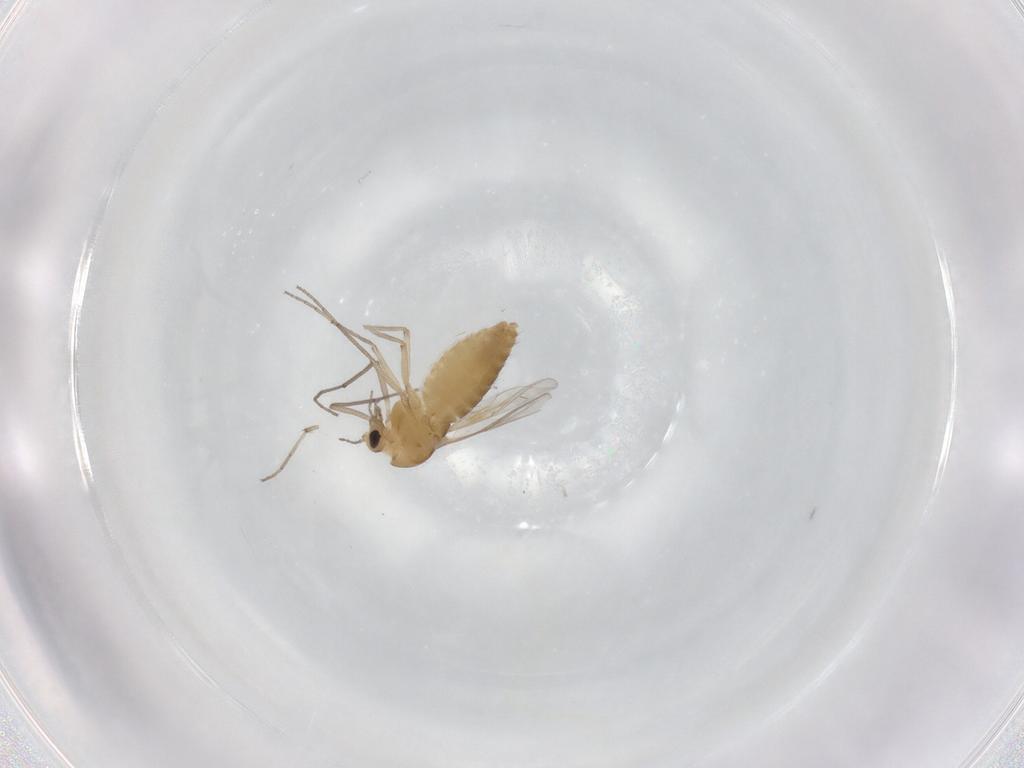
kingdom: Animalia
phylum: Arthropoda
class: Insecta
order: Diptera
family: Chironomidae
